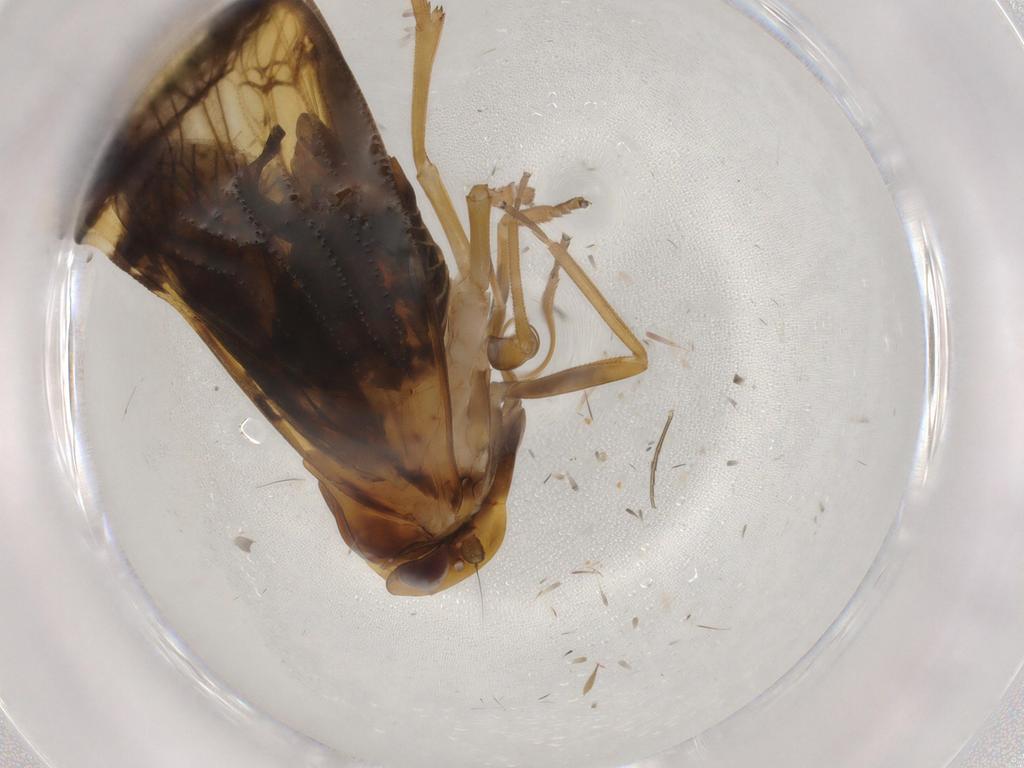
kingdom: Animalia
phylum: Arthropoda
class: Insecta
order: Hemiptera
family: Cixiidae
